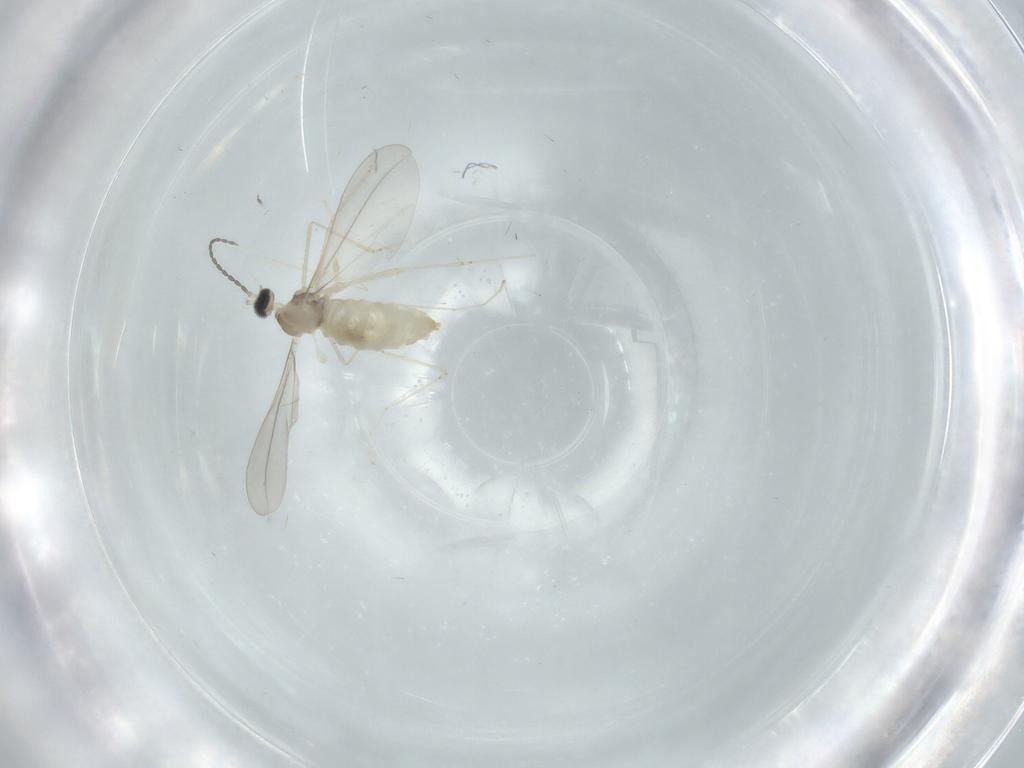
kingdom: Animalia
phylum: Arthropoda
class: Insecta
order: Diptera
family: Cecidomyiidae
